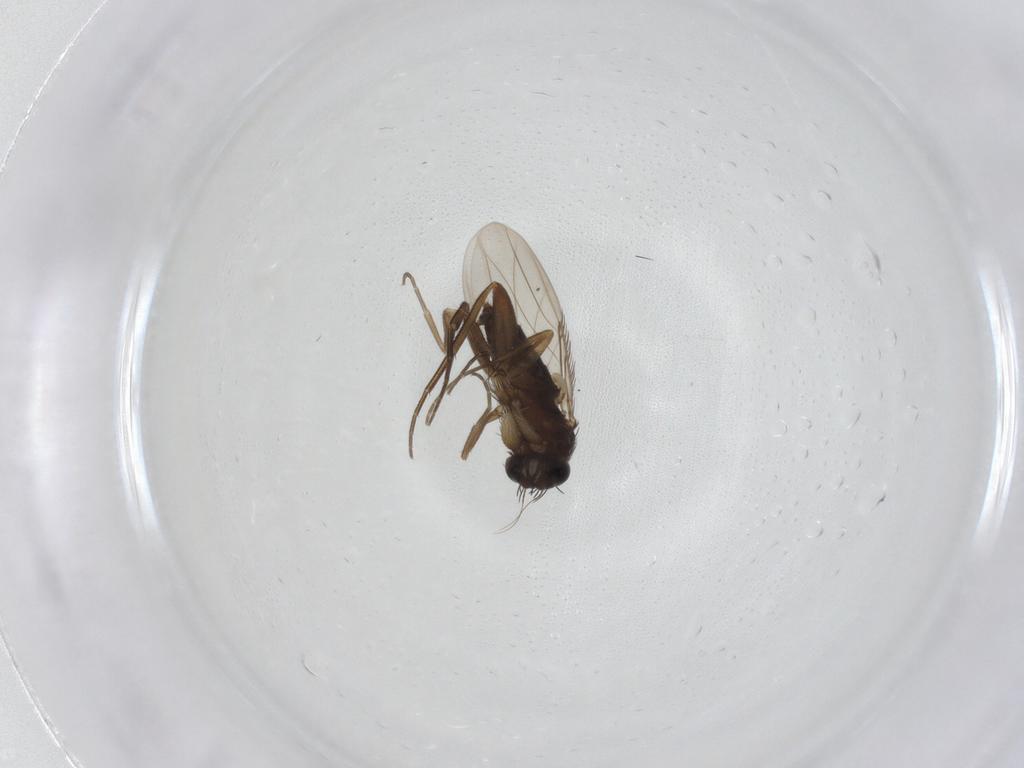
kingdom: Animalia
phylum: Arthropoda
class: Insecta
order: Diptera
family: Phoridae
